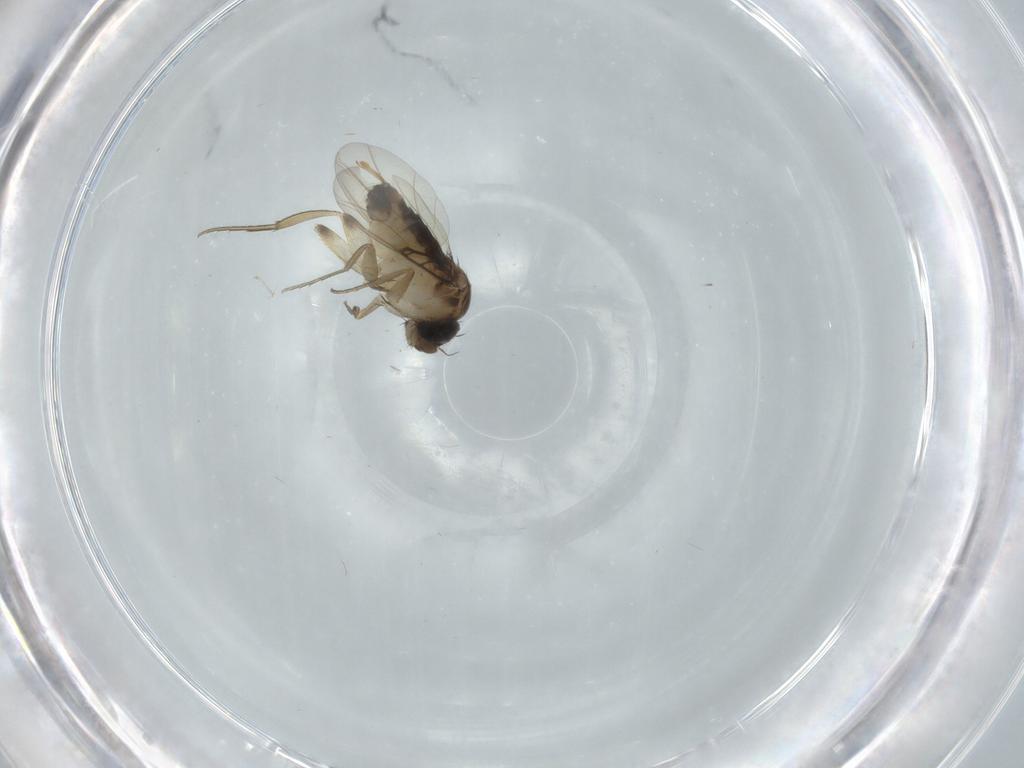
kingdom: Animalia
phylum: Arthropoda
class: Insecta
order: Diptera
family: Phoridae
